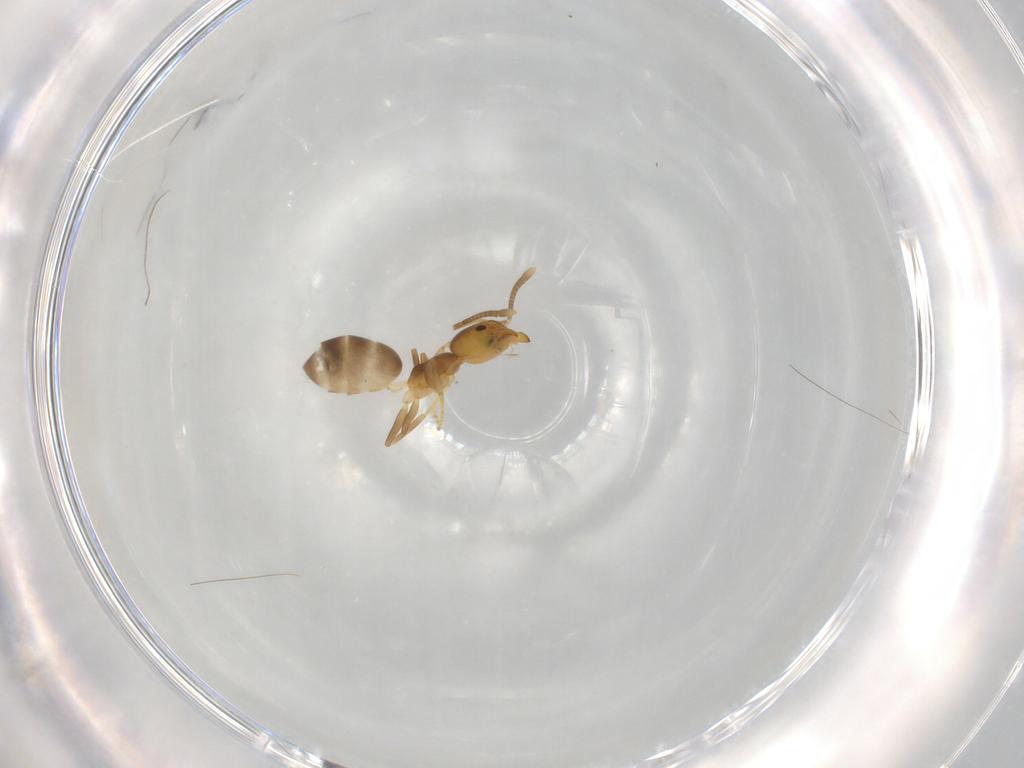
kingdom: Animalia
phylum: Arthropoda
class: Insecta
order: Hymenoptera
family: Formicidae
